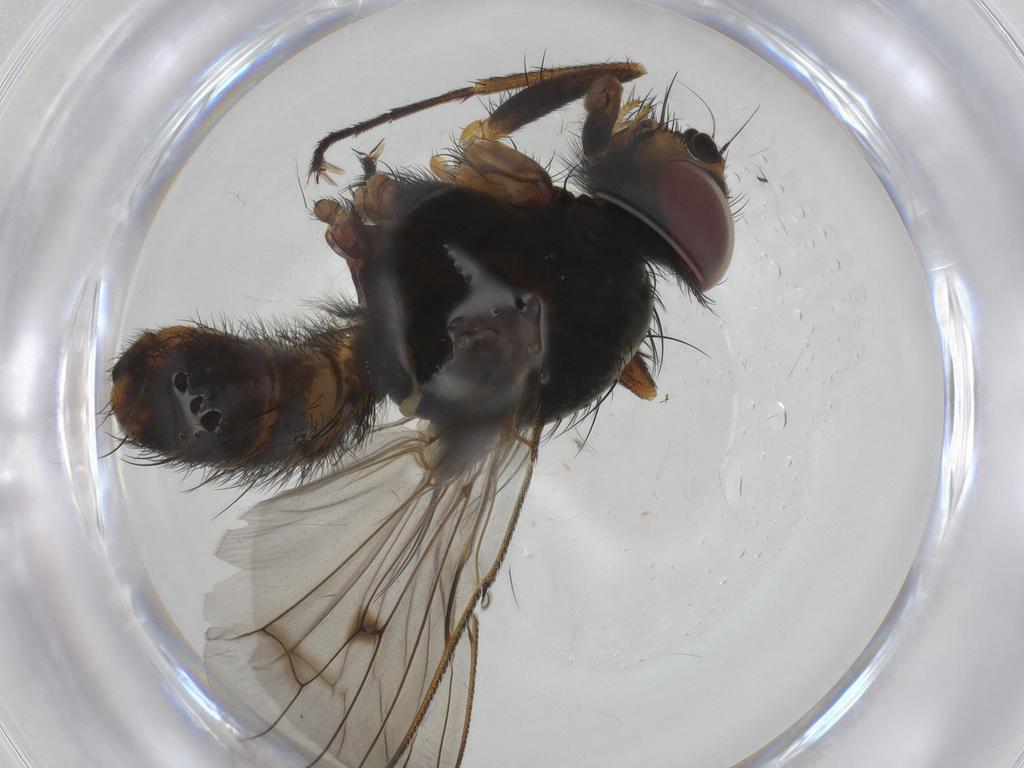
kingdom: Animalia
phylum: Arthropoda
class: Insecta
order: Diptera
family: Anthomyiidae
